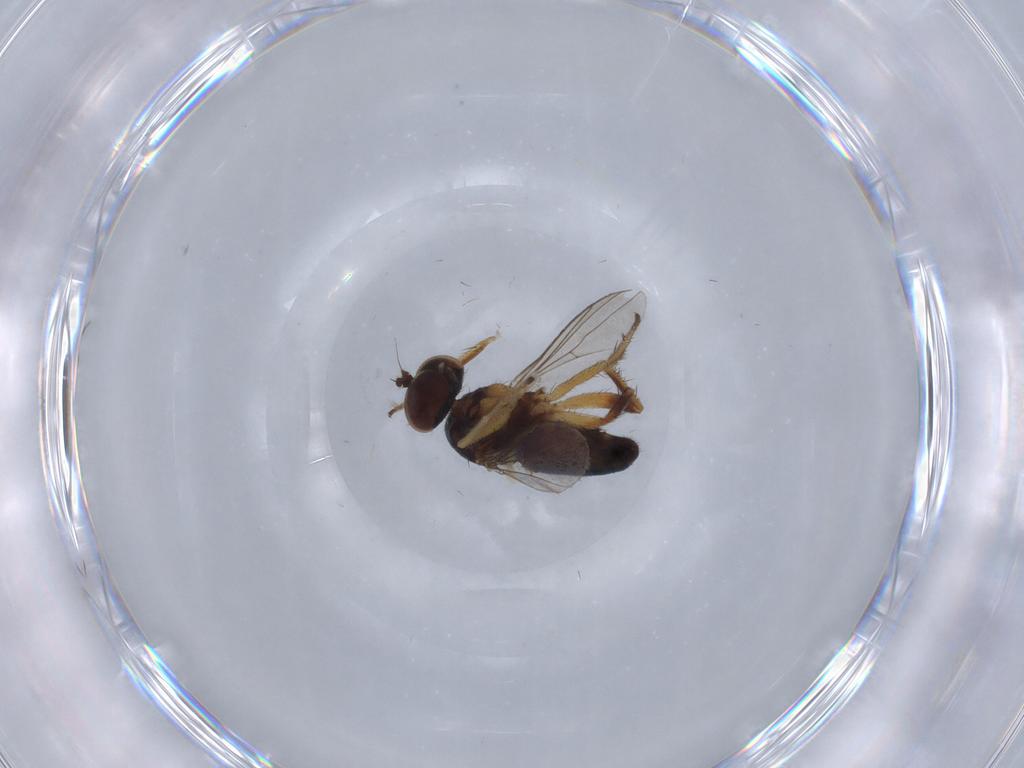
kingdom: Animalia
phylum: Arthropoda
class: Insecta
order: Diptera
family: Cecidomyiidae
